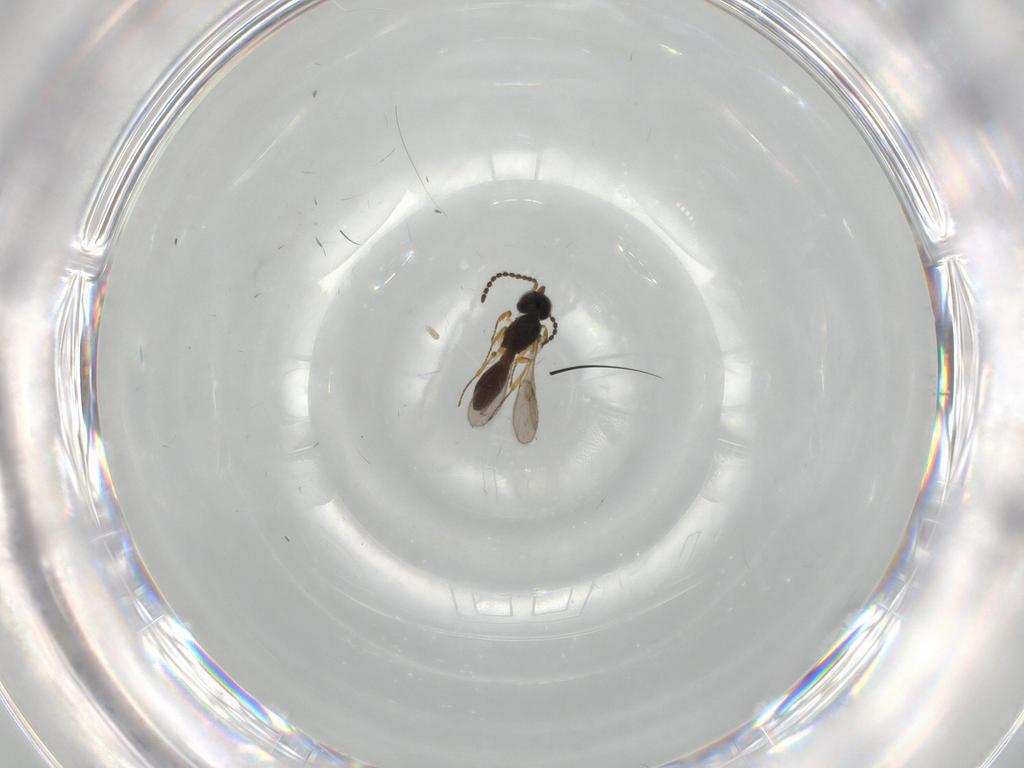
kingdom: Animalia
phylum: Arthropoda
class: Insecta
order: Hymenoptera
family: Scelionidae
